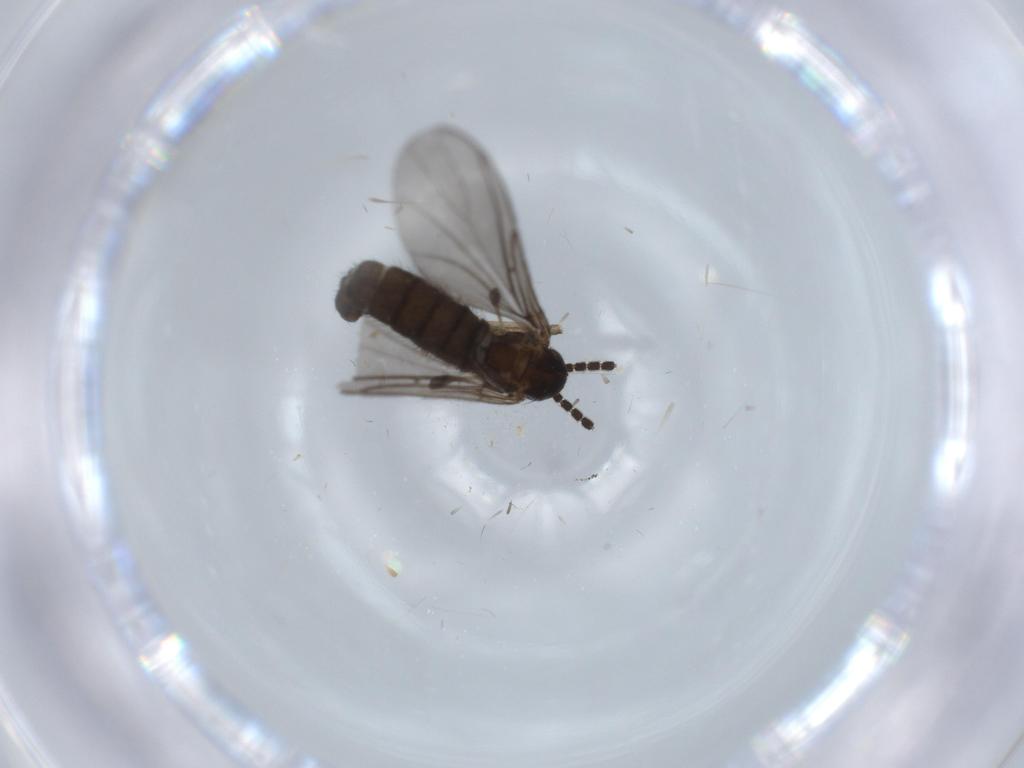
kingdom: Animalia
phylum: Arthropoda
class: Insecta
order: Diptera
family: Sciaridae
